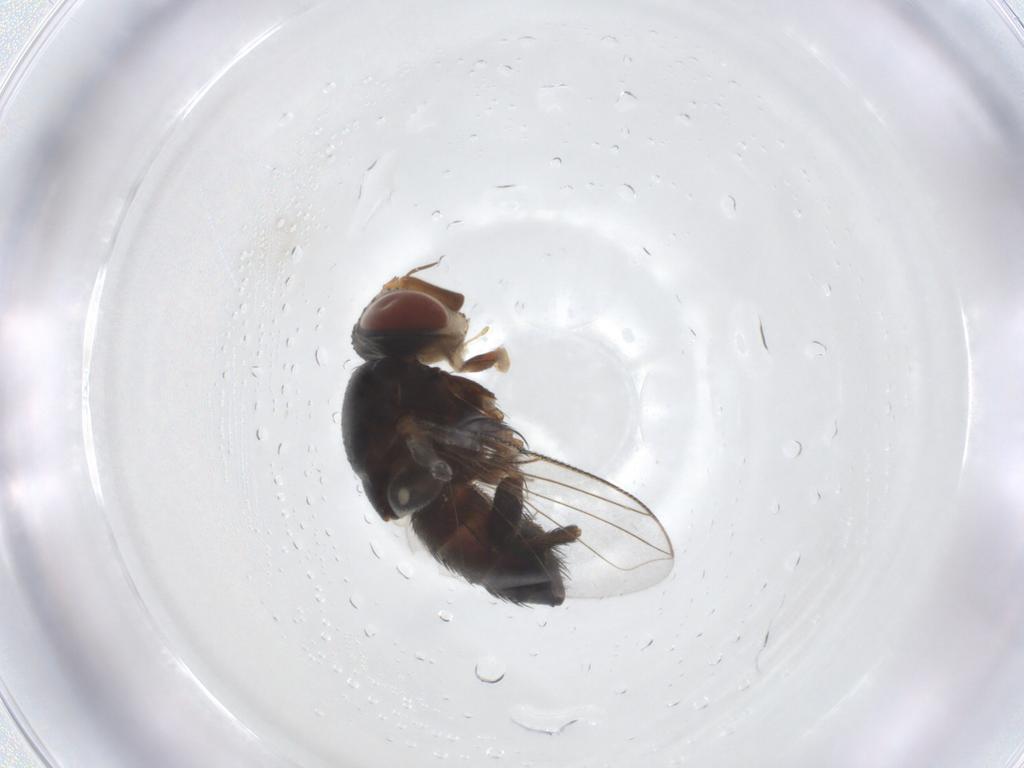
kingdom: Animalia
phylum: Arthropoda
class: Insecta
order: Diptera
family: Tachinidae
